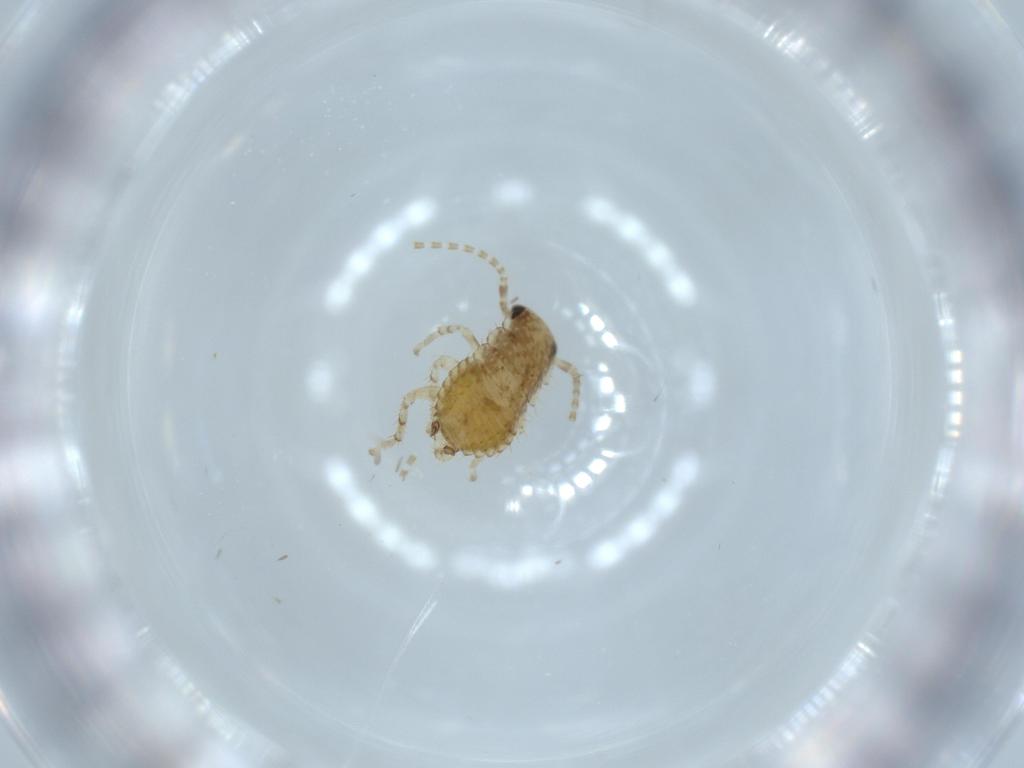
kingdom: Animalia
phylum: Arthropoda
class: Insecta
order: Blattodea
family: Ectobiidae
